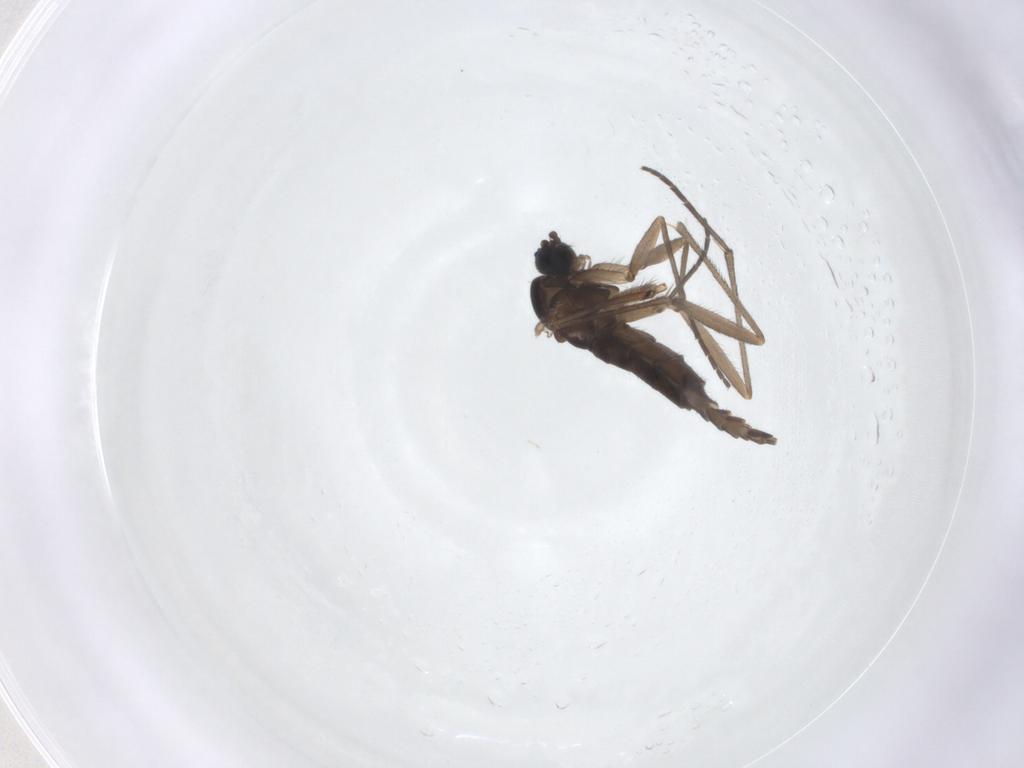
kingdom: Animalia
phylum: Arthropoda
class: Insecta
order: Diptera
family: Sciaridae
